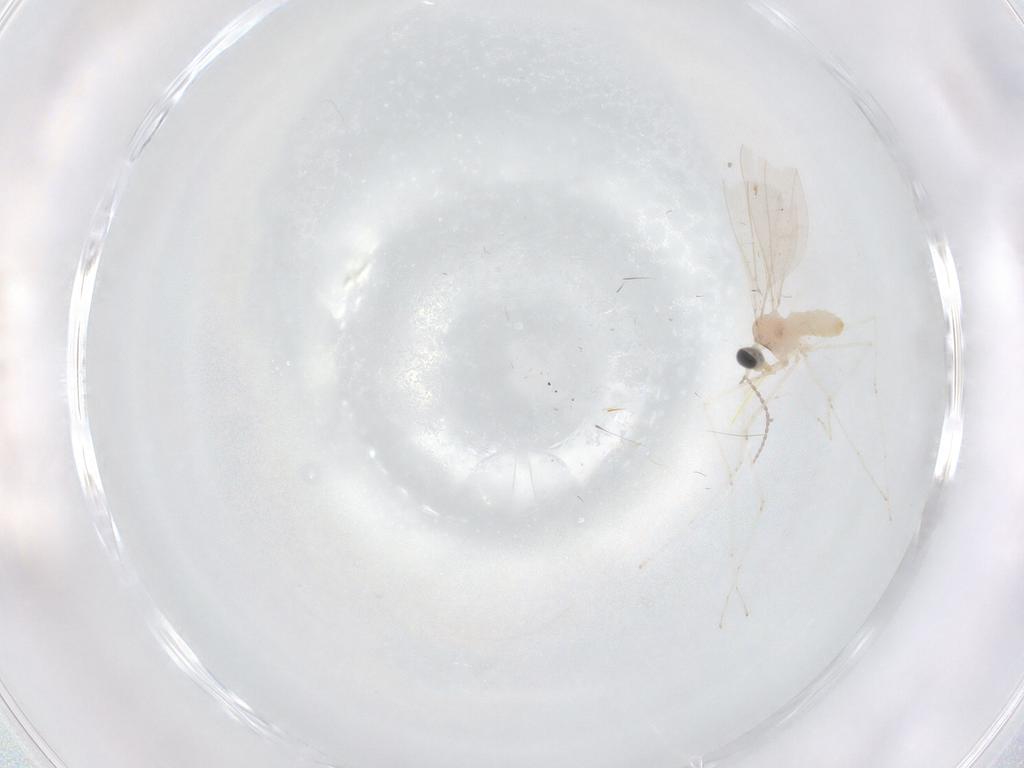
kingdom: Animalia
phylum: Arthropoda
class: Insecta
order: Diptera
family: Cecidomyiidae
